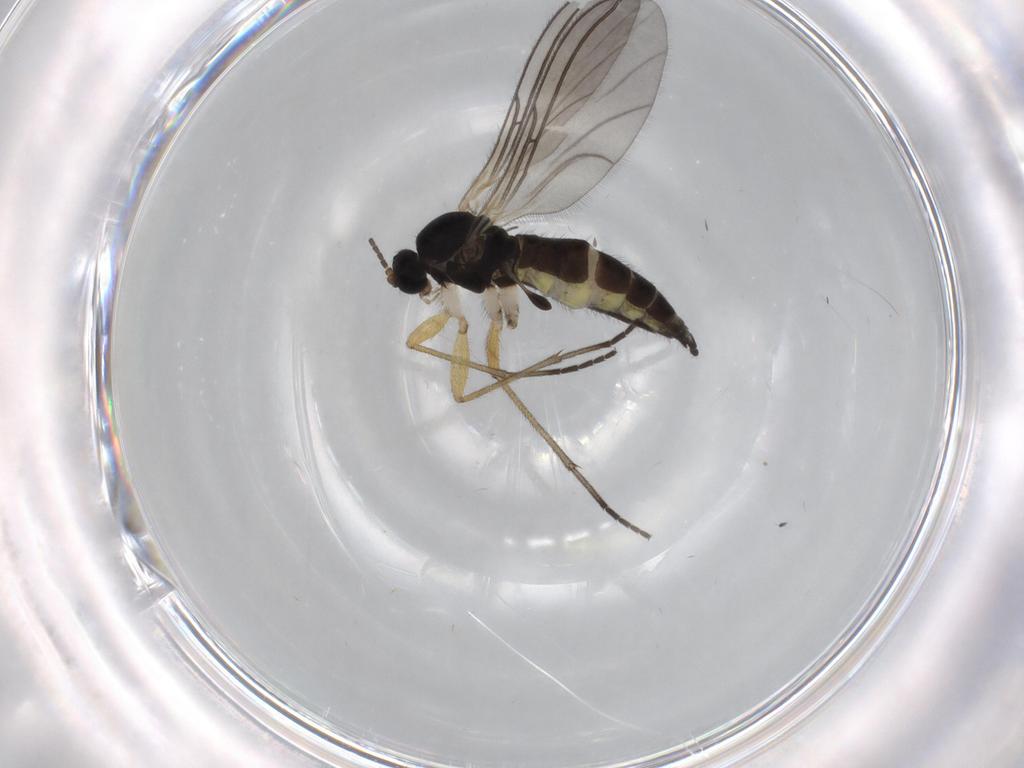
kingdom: Animalia
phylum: Arthropoda
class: Insecta
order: Diptera
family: Sciaridae
